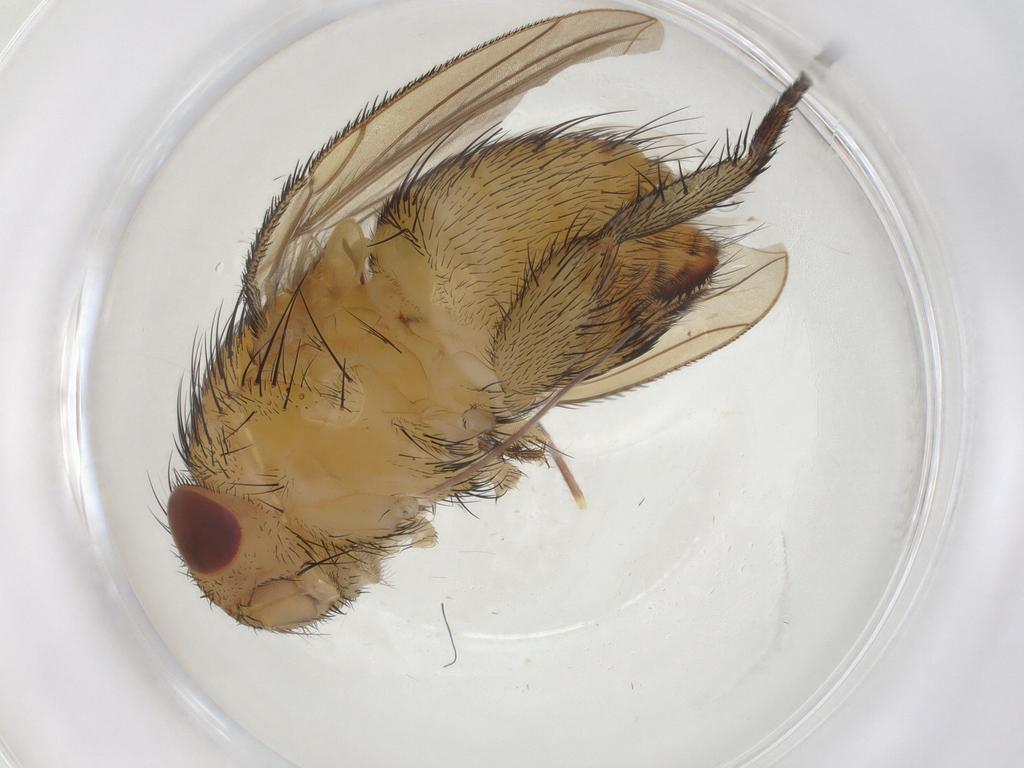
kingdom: Animalia
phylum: Arthropoda
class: Insecta
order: Diptera
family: Calliphoridae
